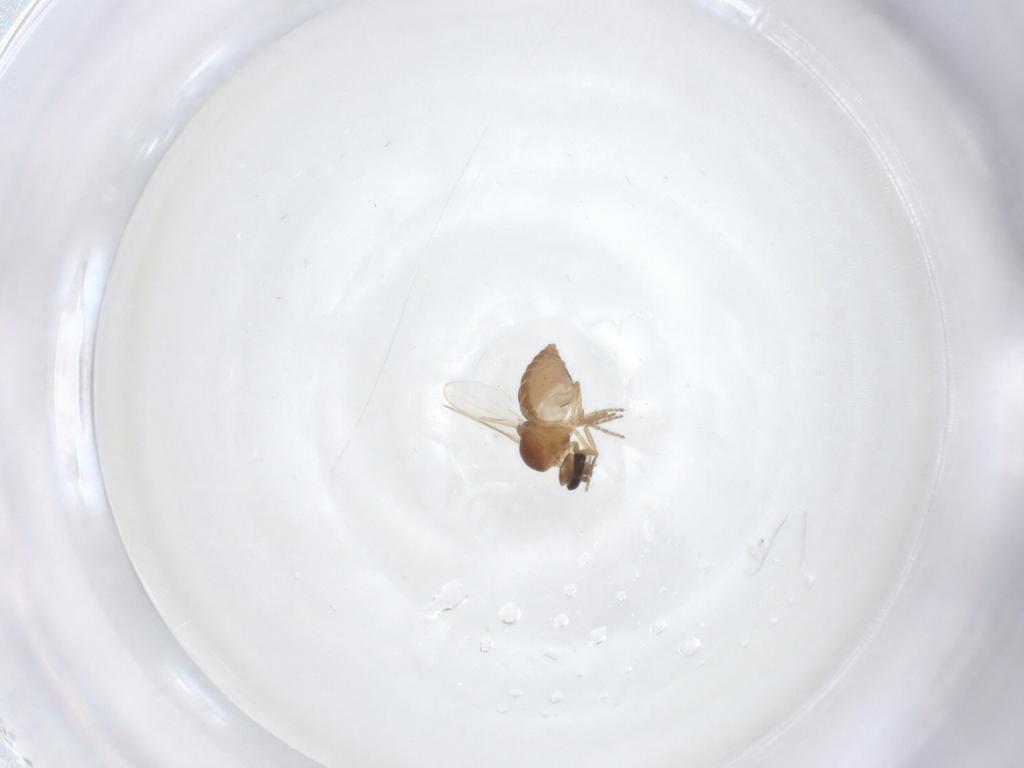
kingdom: Animalia
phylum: Arthropoda
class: Insecta
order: Diptera
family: Ceratopogonidae
